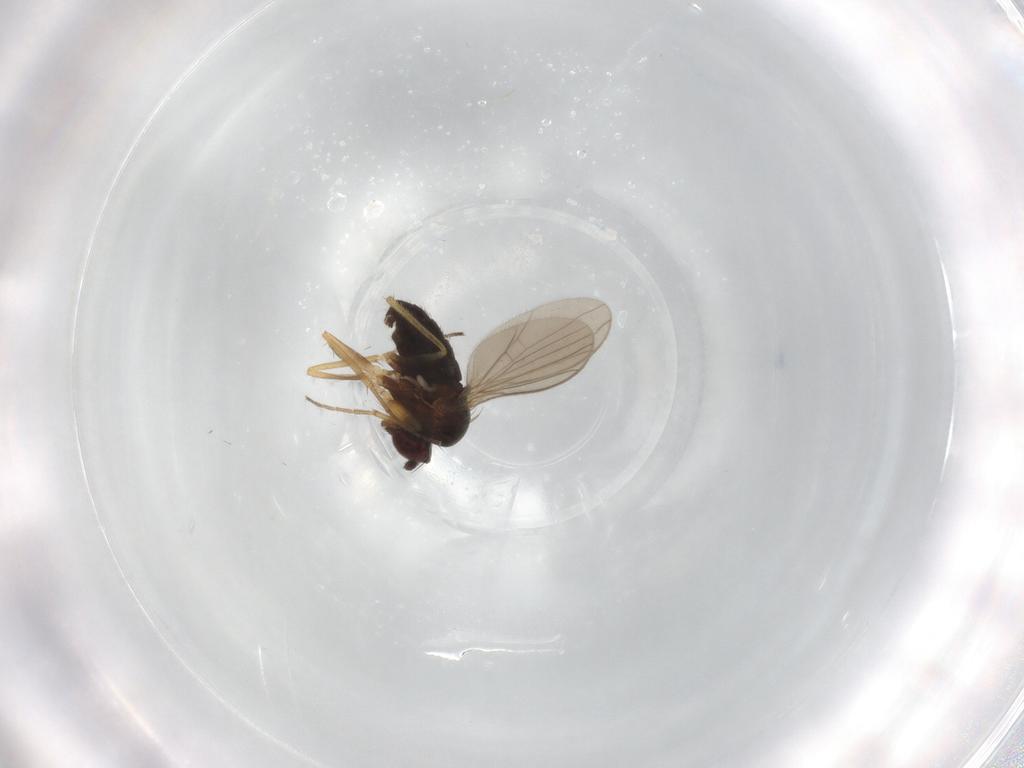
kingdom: Animalia
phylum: Arthropoda
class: Insecta
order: Diptera
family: Dolichopodidae
